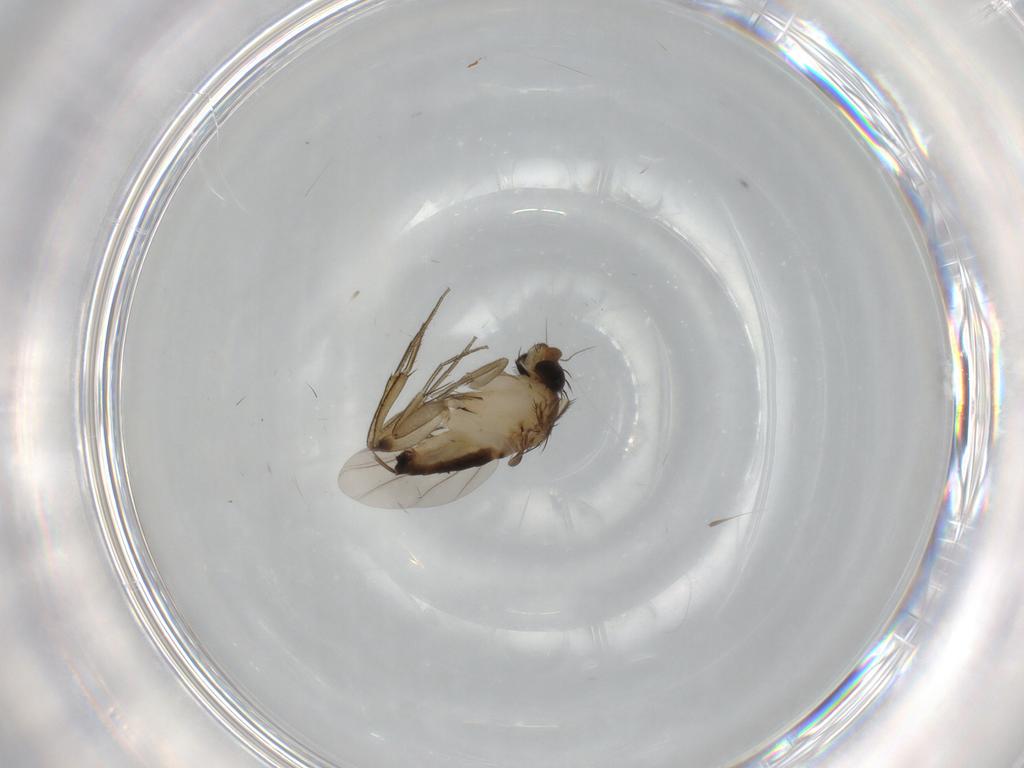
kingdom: Animalia
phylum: Arthropoda
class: Insecta
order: Diptera
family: Phoridae
